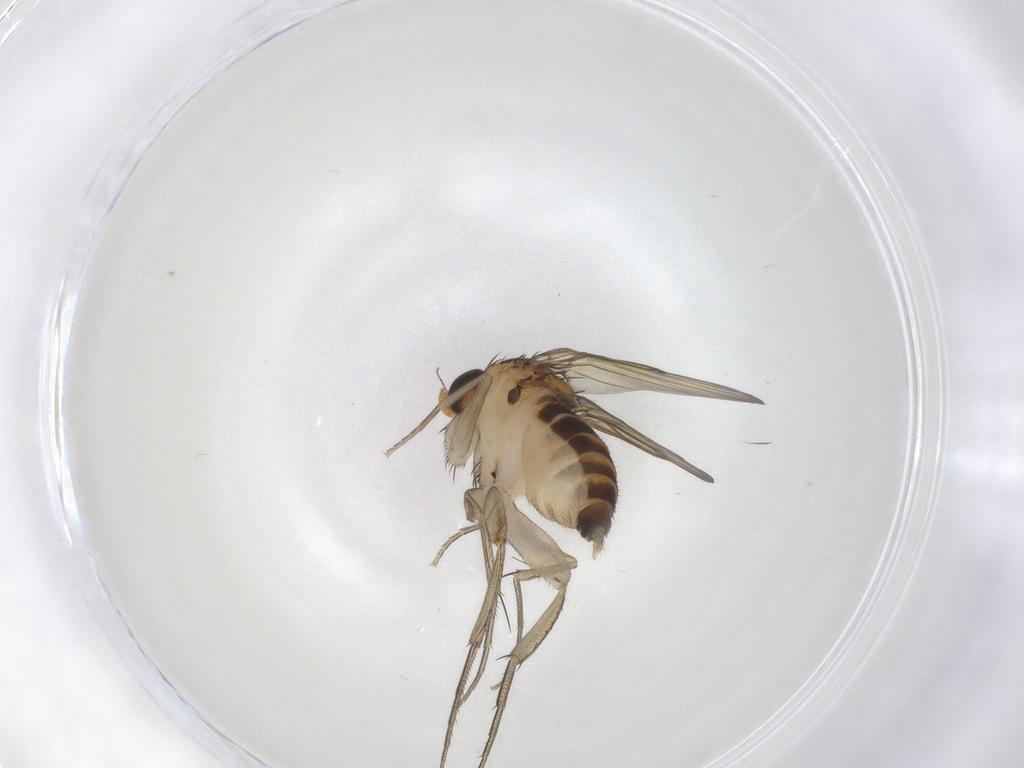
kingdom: Animalia
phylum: Arthropoda
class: Insecta
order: Diptera
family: Phoridae
